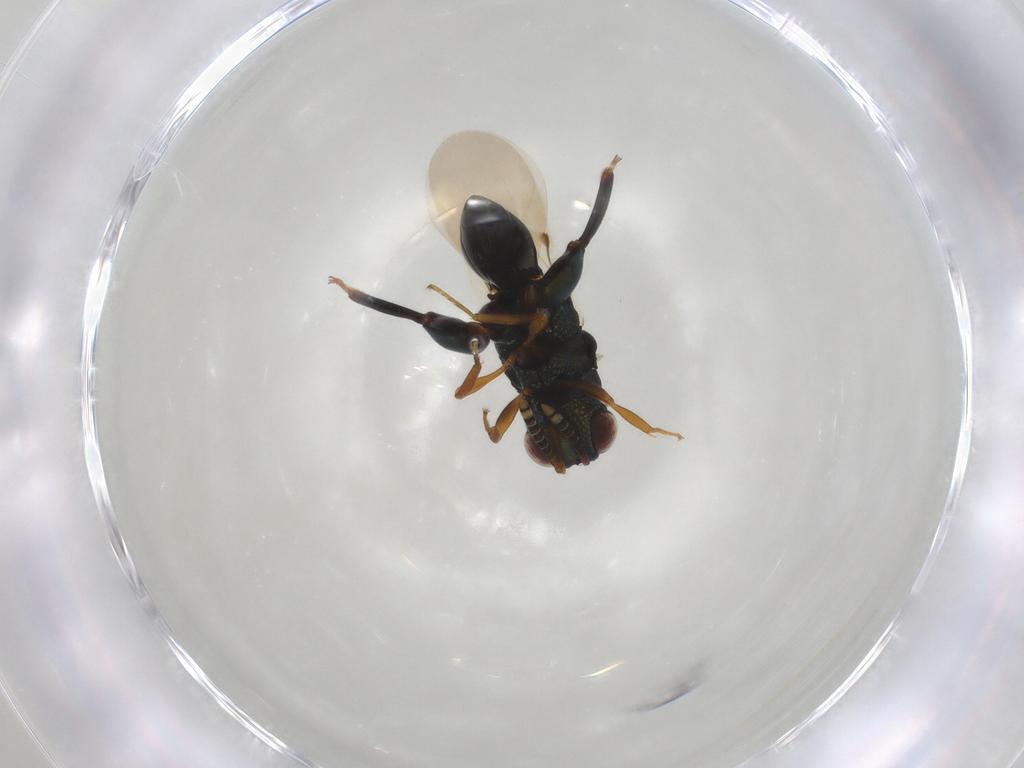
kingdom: Animalia
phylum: Arthropoda
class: Insecta
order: Hymenoptera
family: Chalcididae
